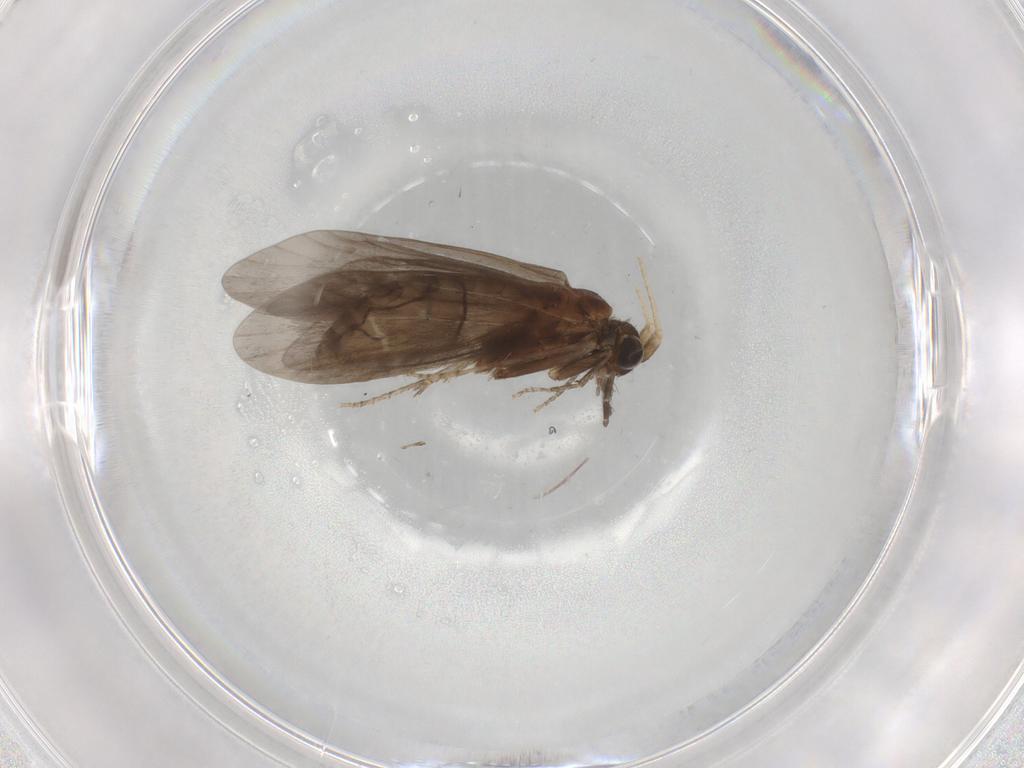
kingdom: Animalia
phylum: Arthropoda
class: Insecta
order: Trichoptera
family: Helicopsychidae
